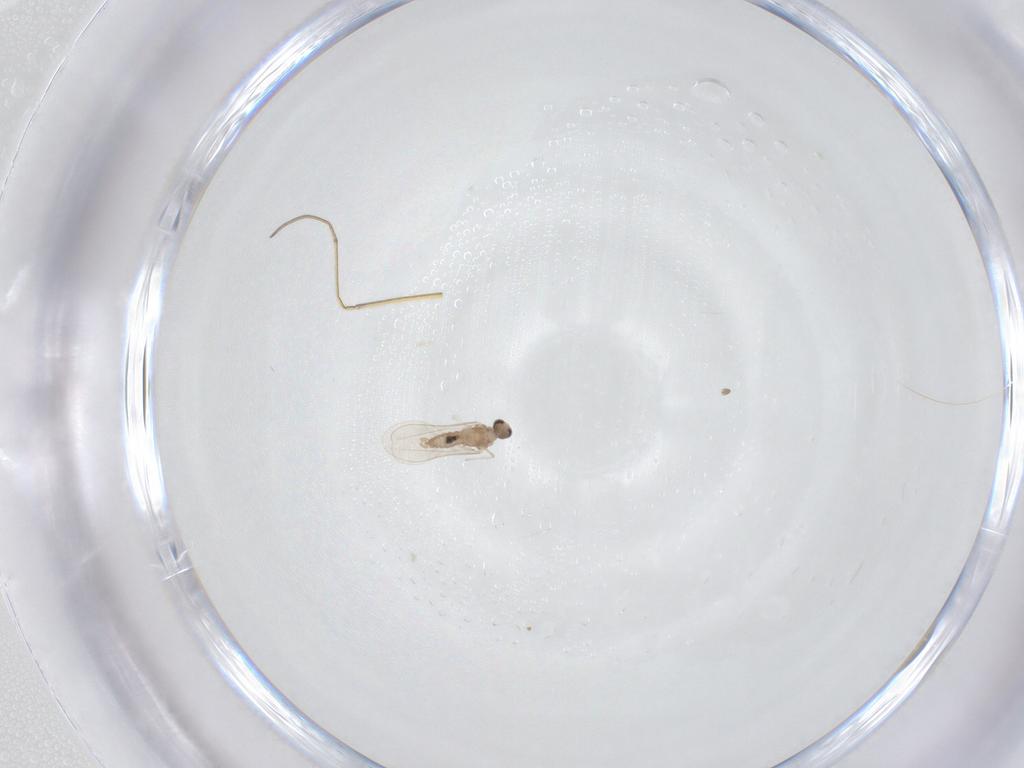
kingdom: Animalia
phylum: Arthropoda
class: Insecta
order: Diptera
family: Cecidomyiidae
